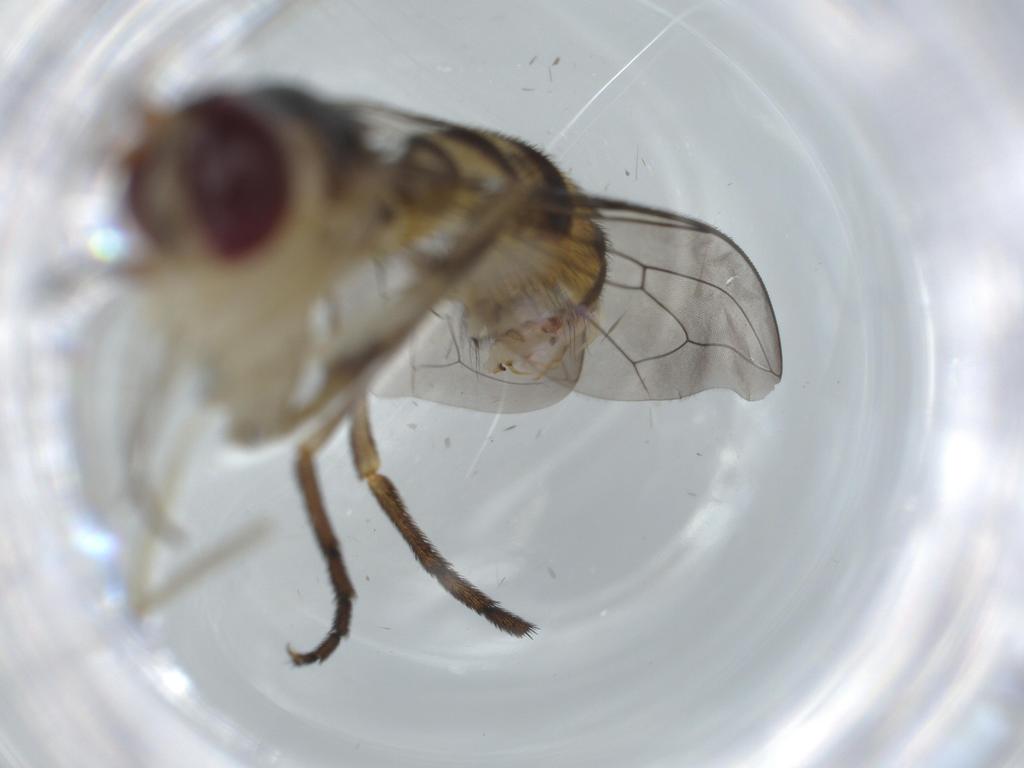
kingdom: Animalia
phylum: Arthropoda
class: Insecta
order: Diptera
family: Conopidae
